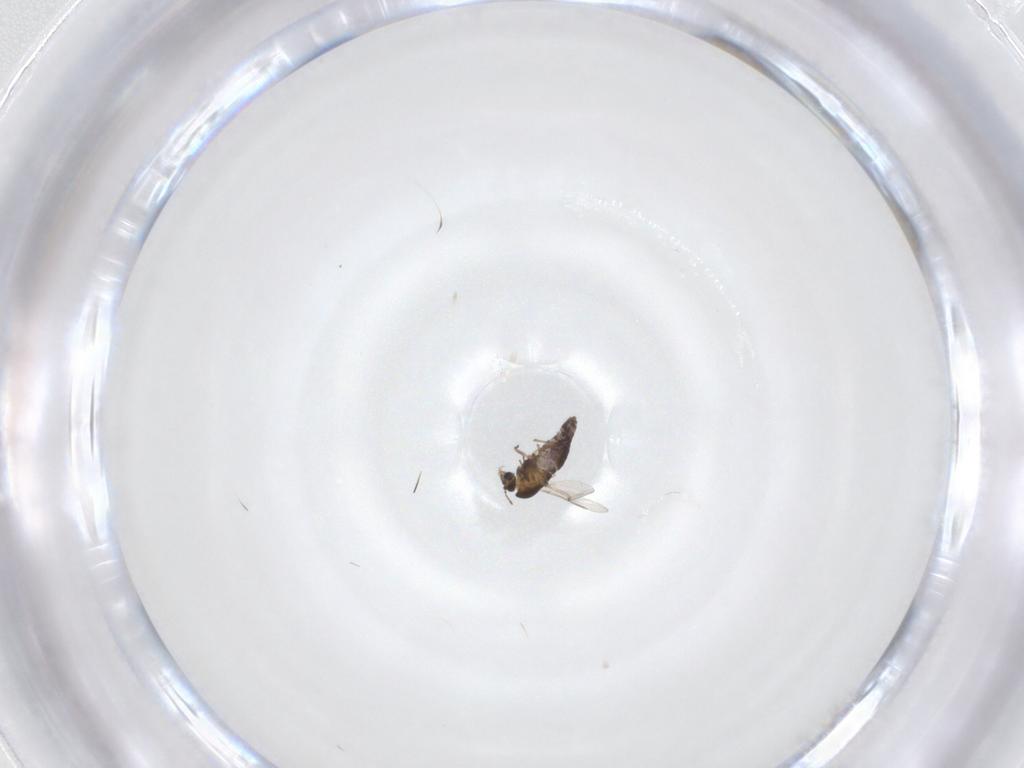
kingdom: Animalia
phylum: Arthropoda
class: Insecta
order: Diptera
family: Chironomidae
